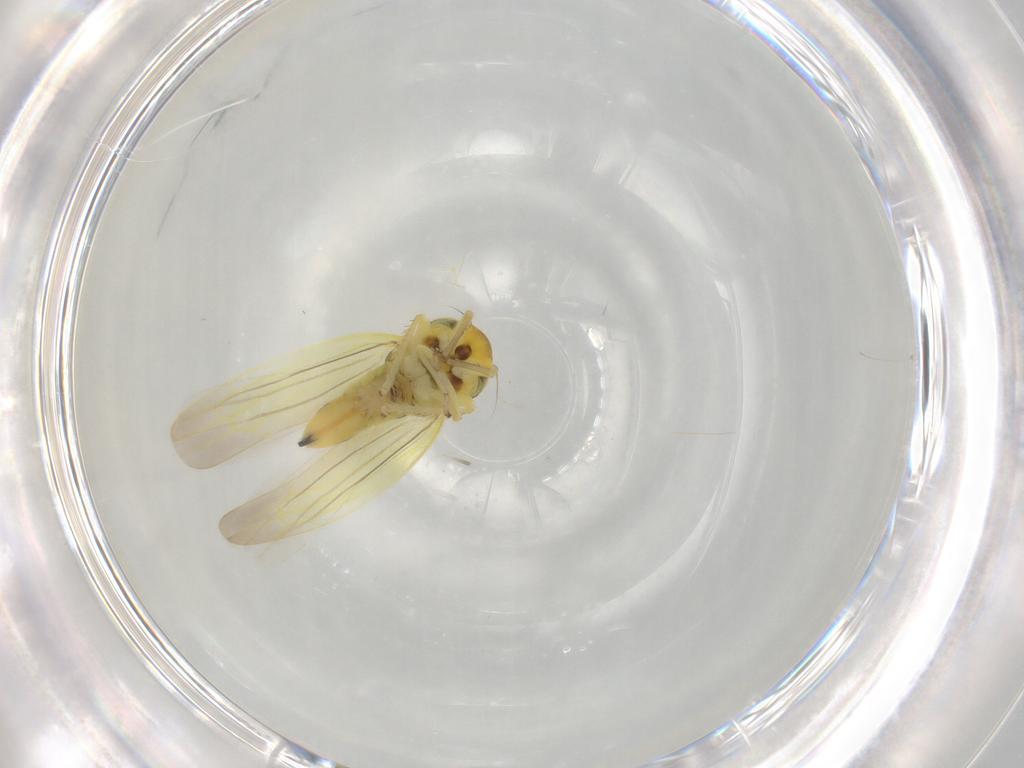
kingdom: Animalia
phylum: Arthropoda
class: Insecta
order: Hemiptera
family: Cicadellidae
